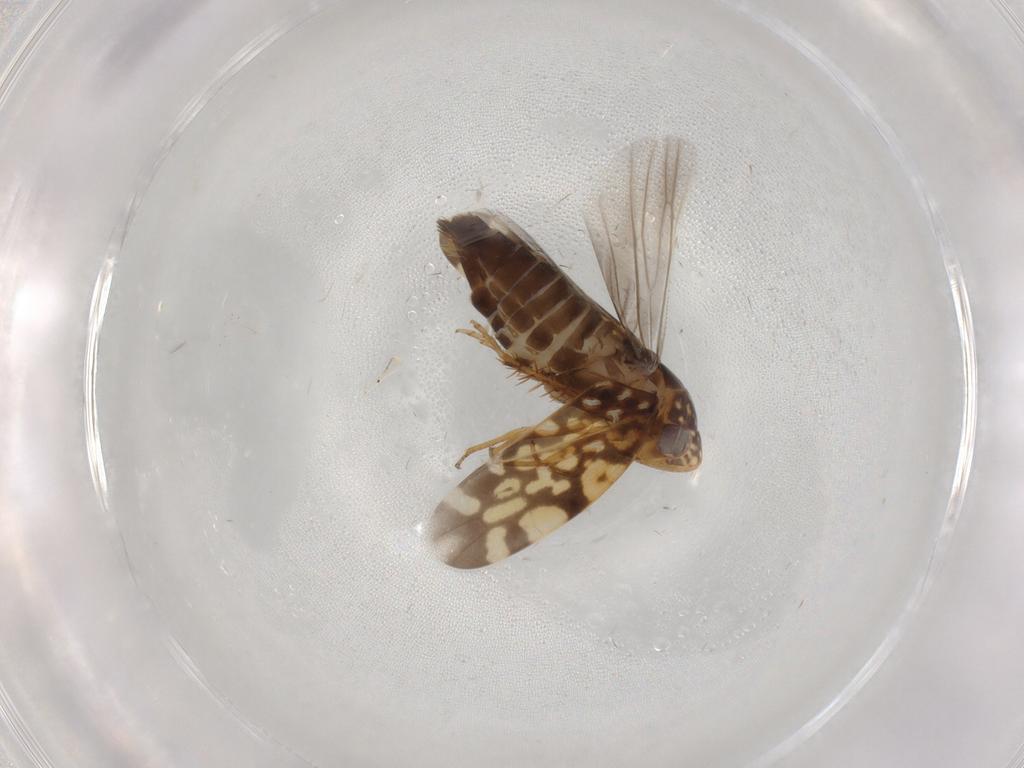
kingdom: Animalia
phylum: Arthropoda
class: Insecta
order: Hemiptera
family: Cicadellidae
